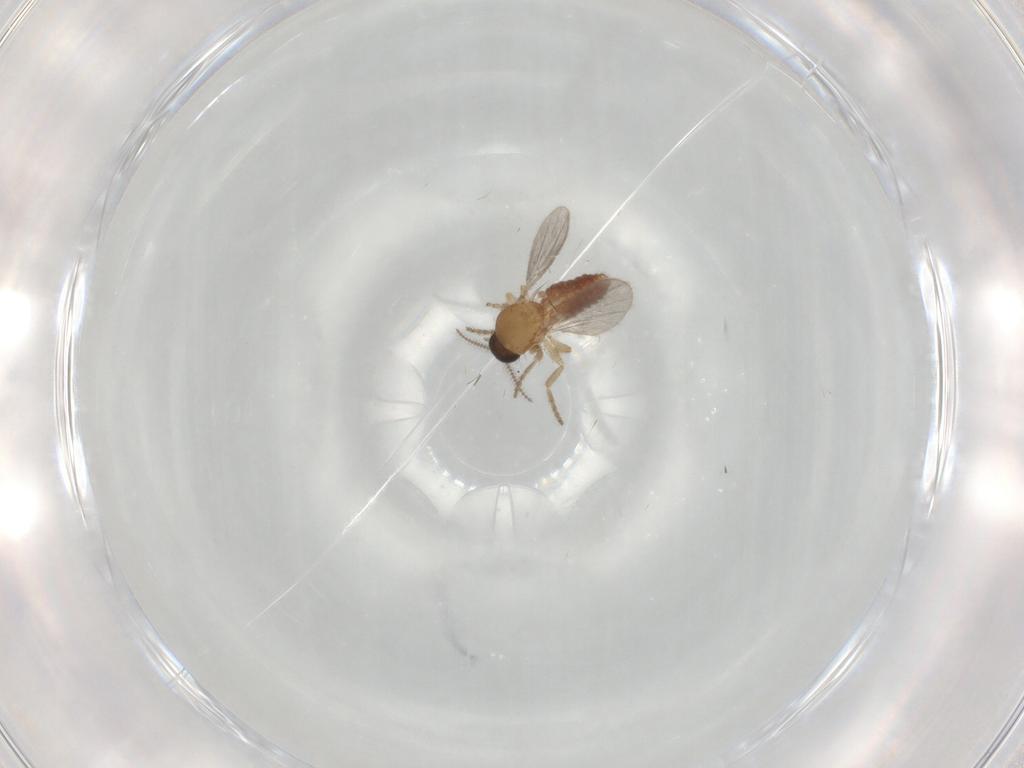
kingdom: Animalia
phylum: Arthropoda
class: Insecta
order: Diptera
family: Ceratopogonidae
